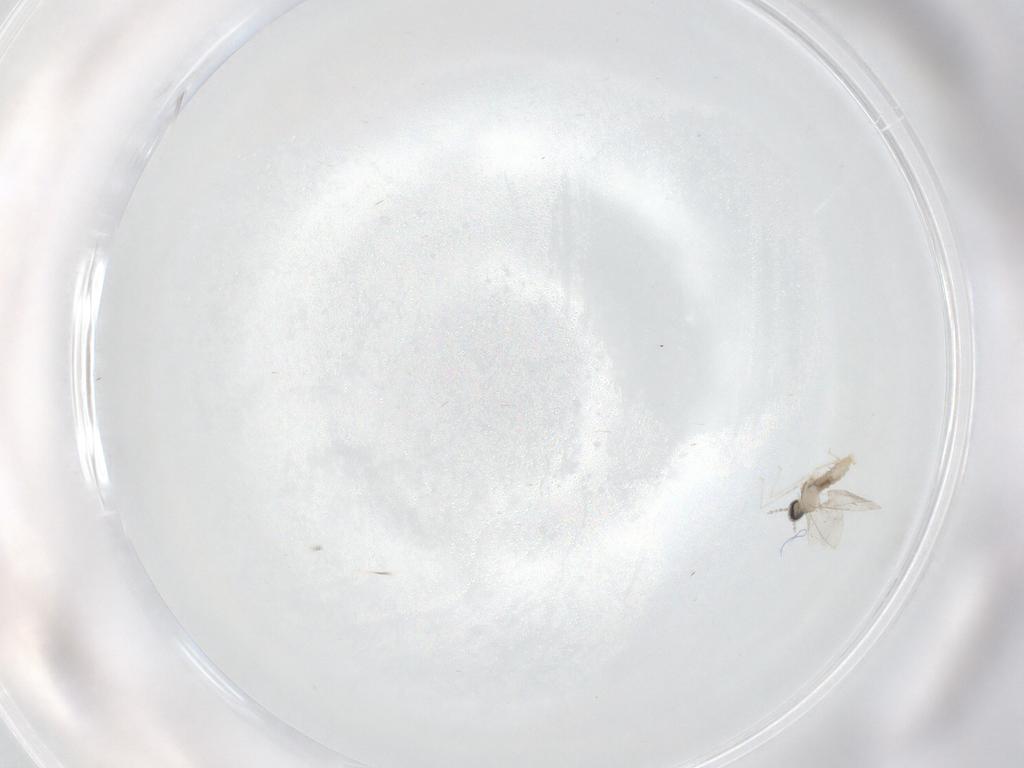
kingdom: Animalia
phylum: Arthropoda
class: Insecta
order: Diptera
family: Cecidomyiidae
